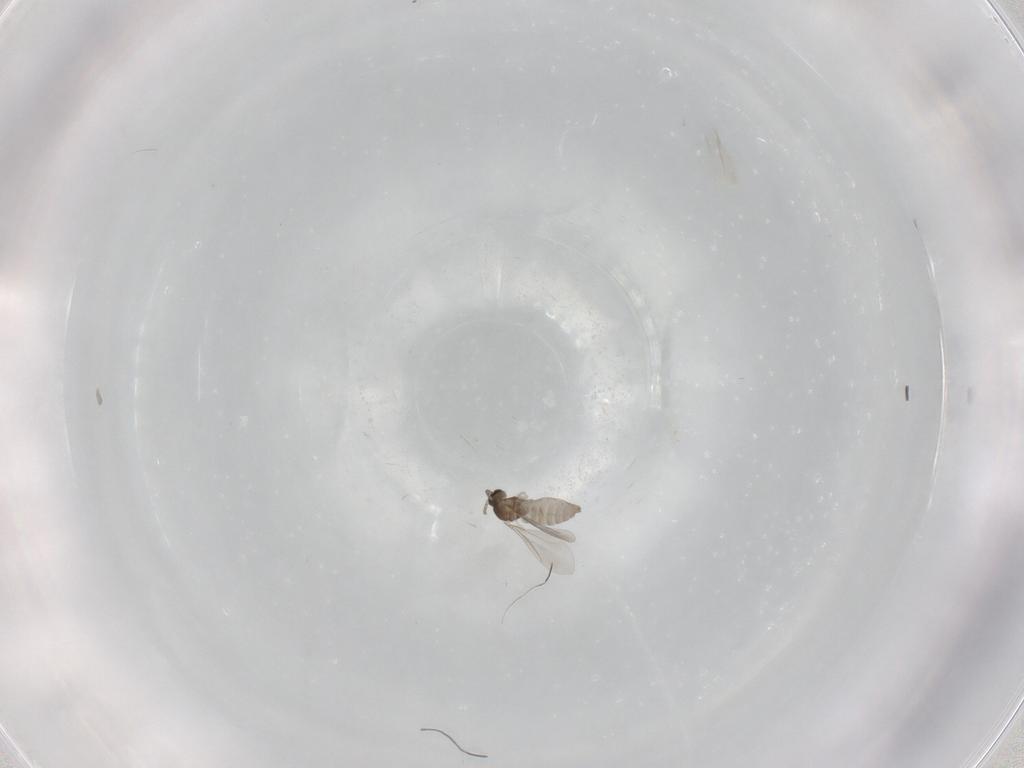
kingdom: Animalia
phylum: Arthropoda
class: Insecta
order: Diptera
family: Cecidomyiidae
